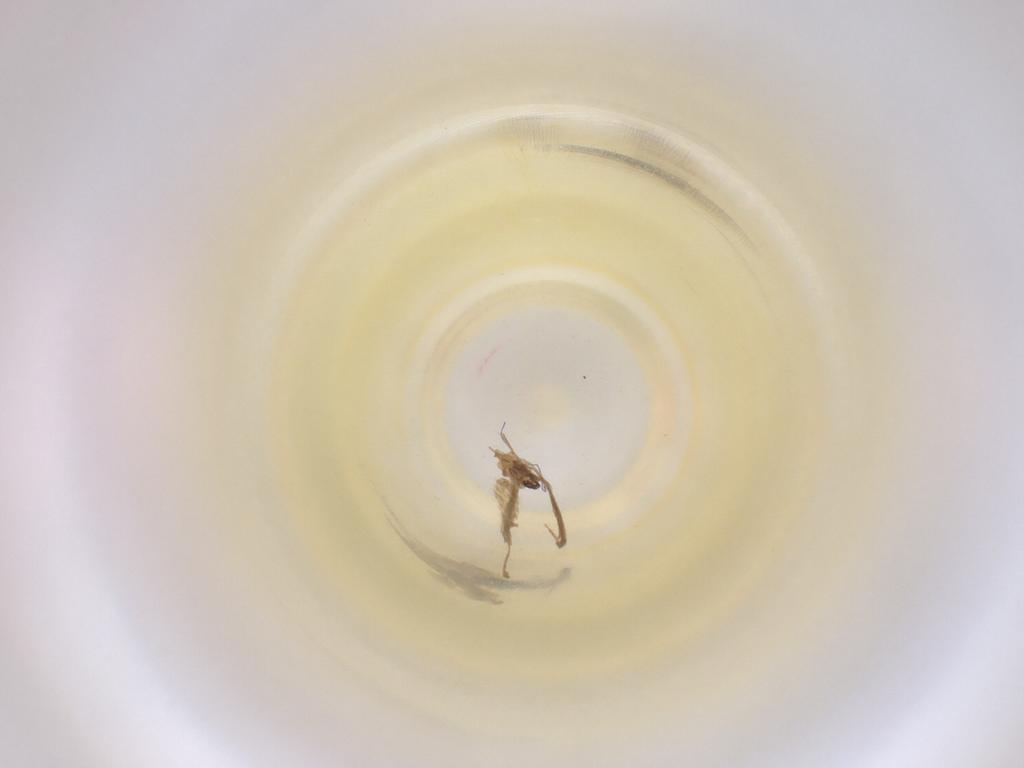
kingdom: Animalia
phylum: Arthropoda
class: Insecta
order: Diptera
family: Cecidomyiidae
